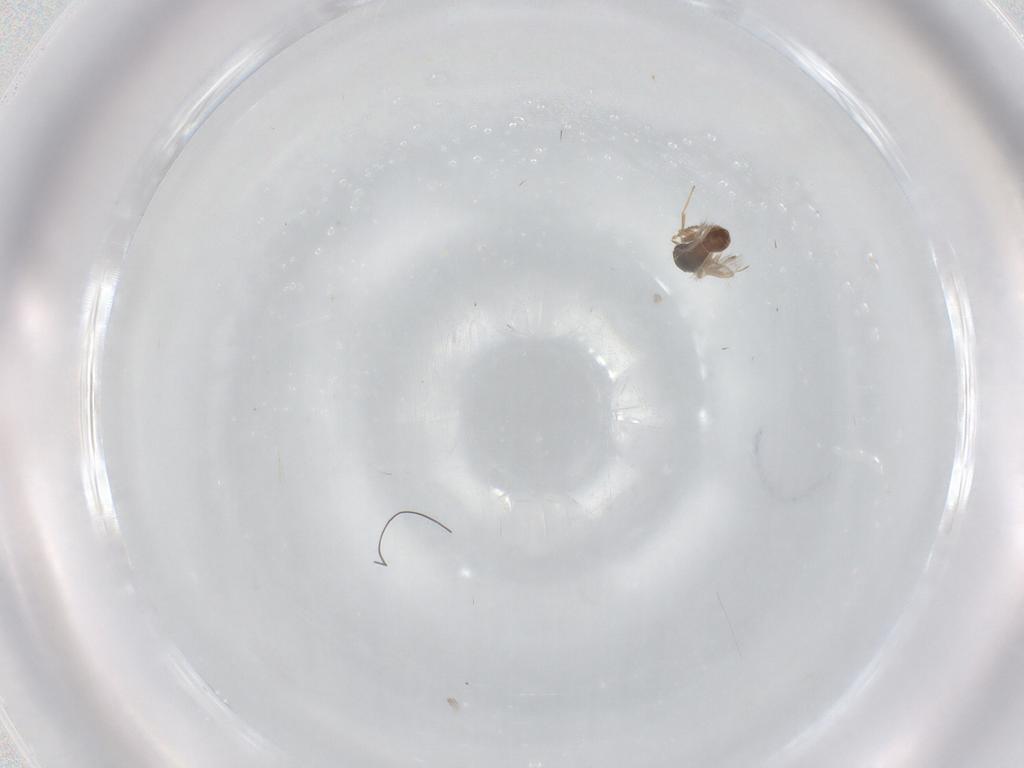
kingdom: Animalia
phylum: Arthropoda
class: Insecta
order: Hymenoptera
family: Scelionidae
